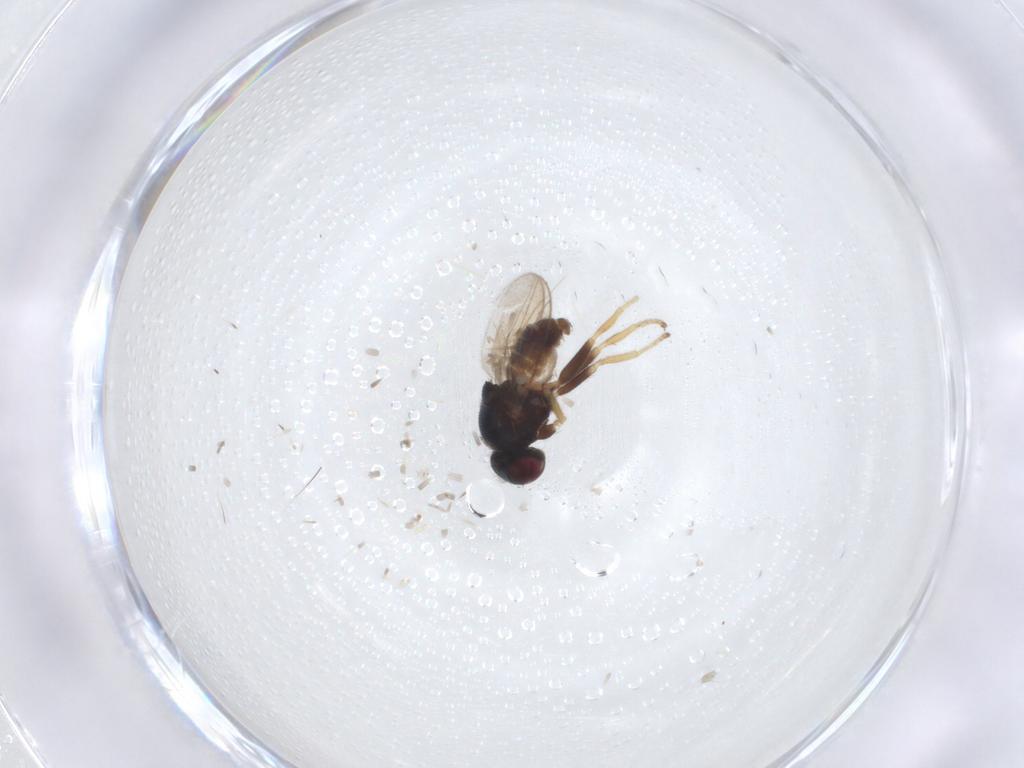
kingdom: Animalia
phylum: Arthropoda
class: Insecta
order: Diptera
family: Chloropidae
